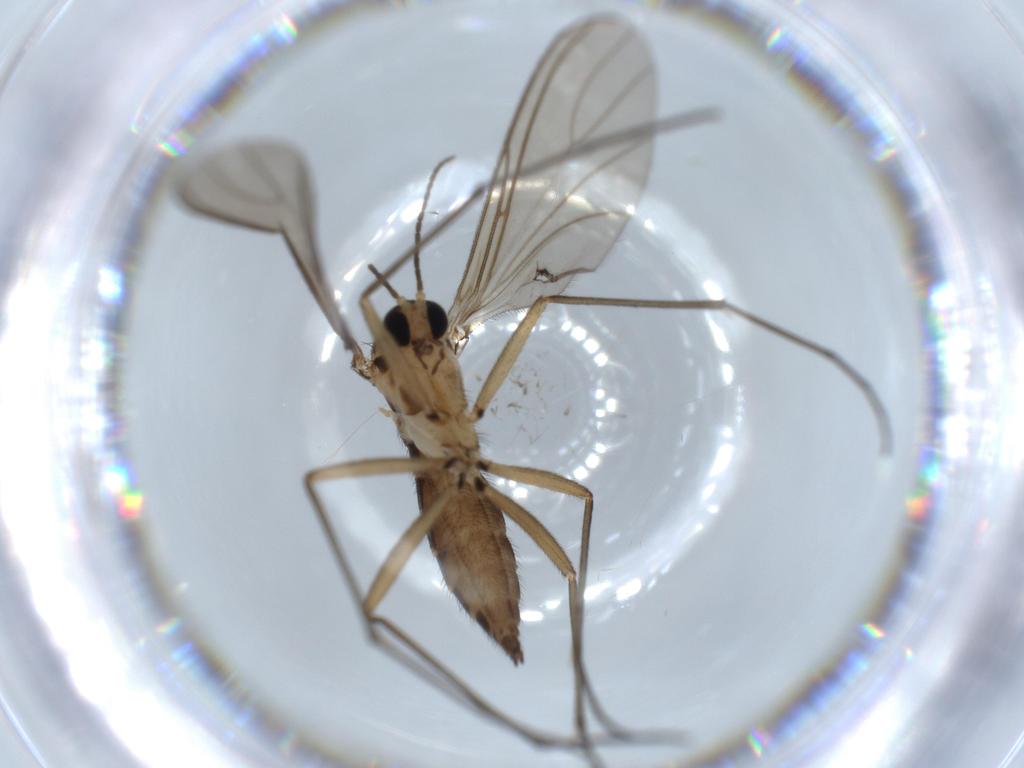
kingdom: Animalia
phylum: Arthropoda
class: Insecta
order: Diptera
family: Sciaridae
